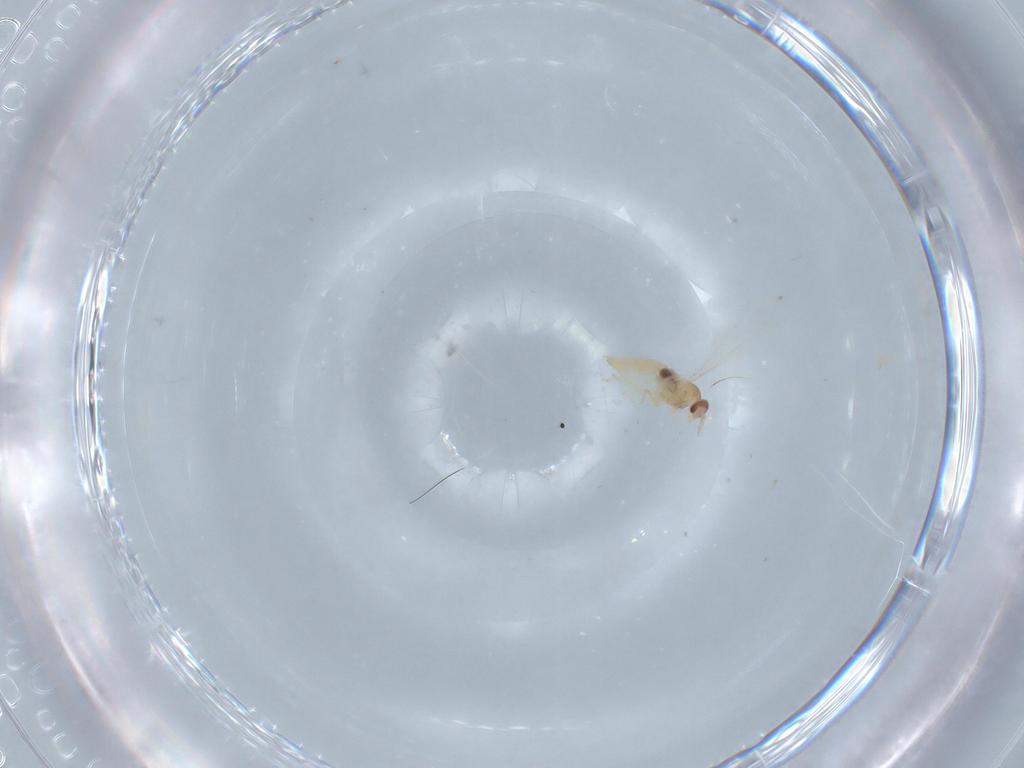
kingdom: Animalia
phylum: Arthropoda
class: Insecta
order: Diptera
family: Cecidomyiidae
